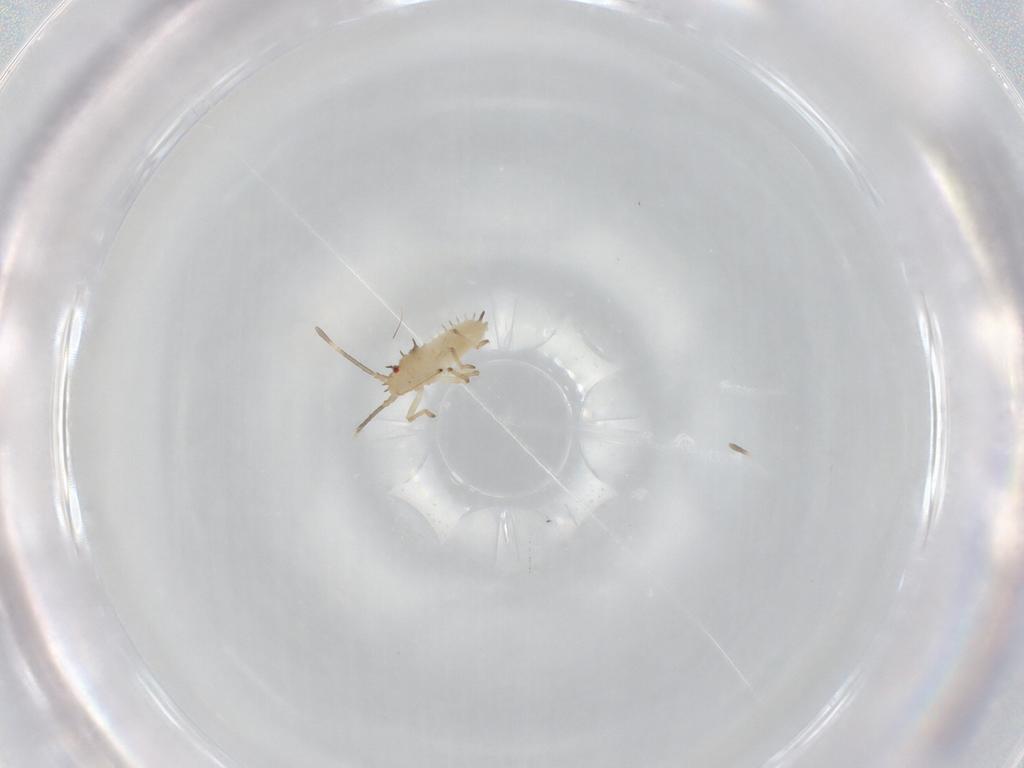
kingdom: Animalia
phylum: Arthropoda
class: Insecta
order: Hemiptera
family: Tingidae
